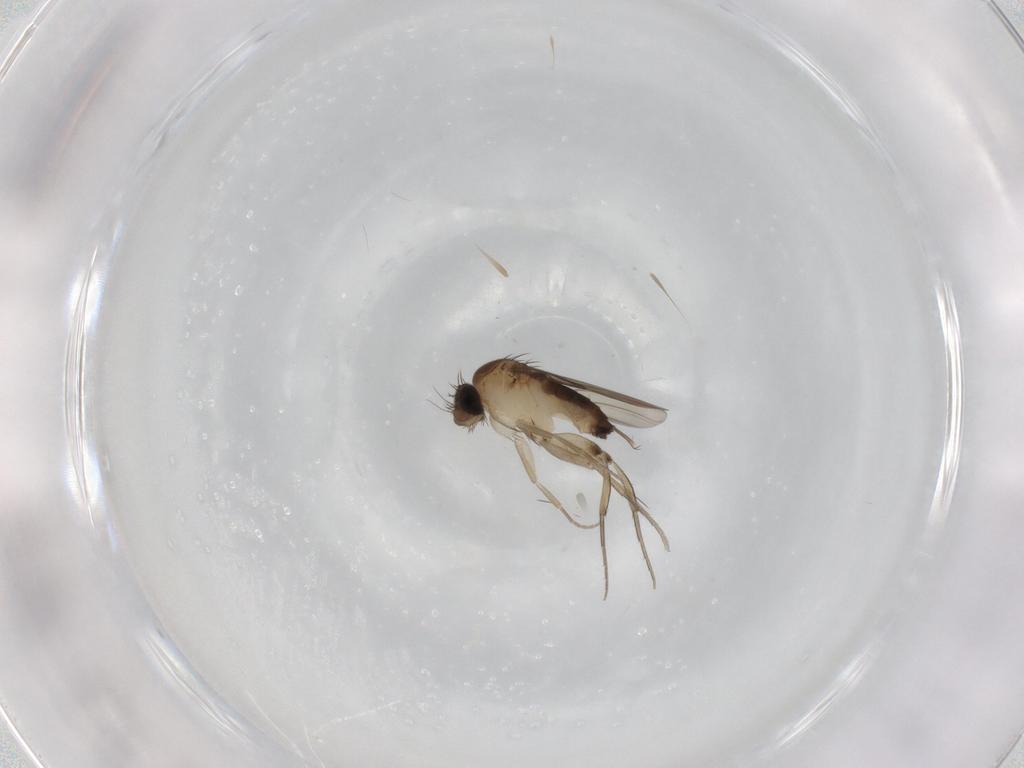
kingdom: Animalia
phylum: Arthropoda
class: Insecta
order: Diptera
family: Phoridae
